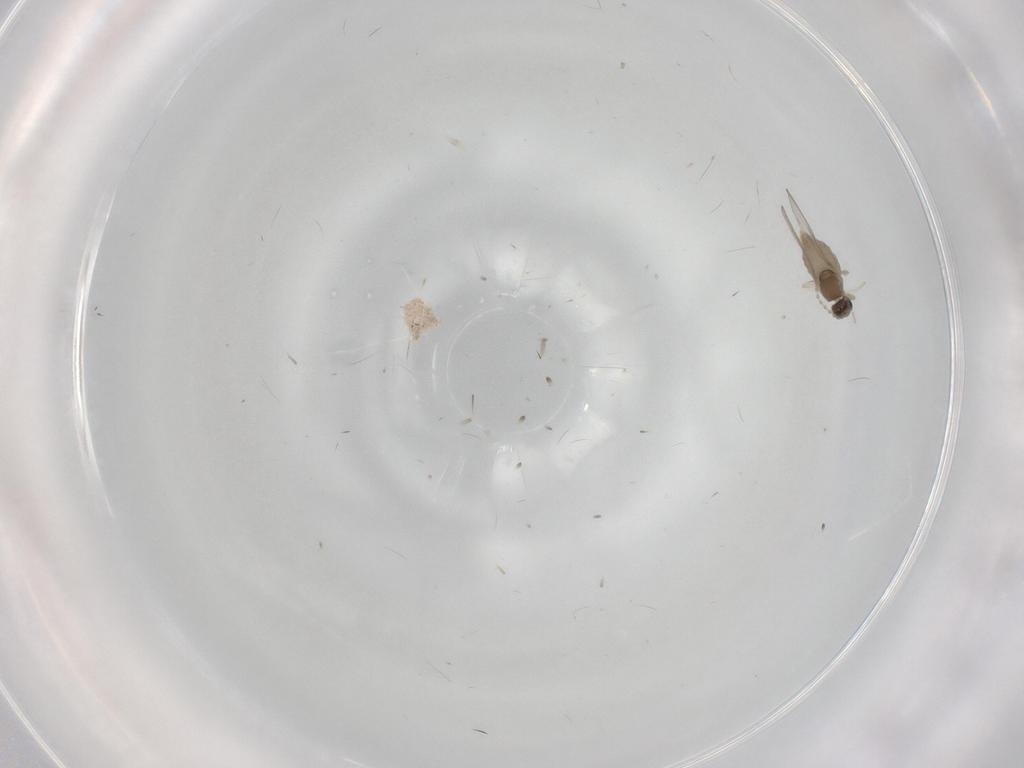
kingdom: Animalia
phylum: Arthropoda
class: Insecta
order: Diptera
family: Cecidomyiidae
